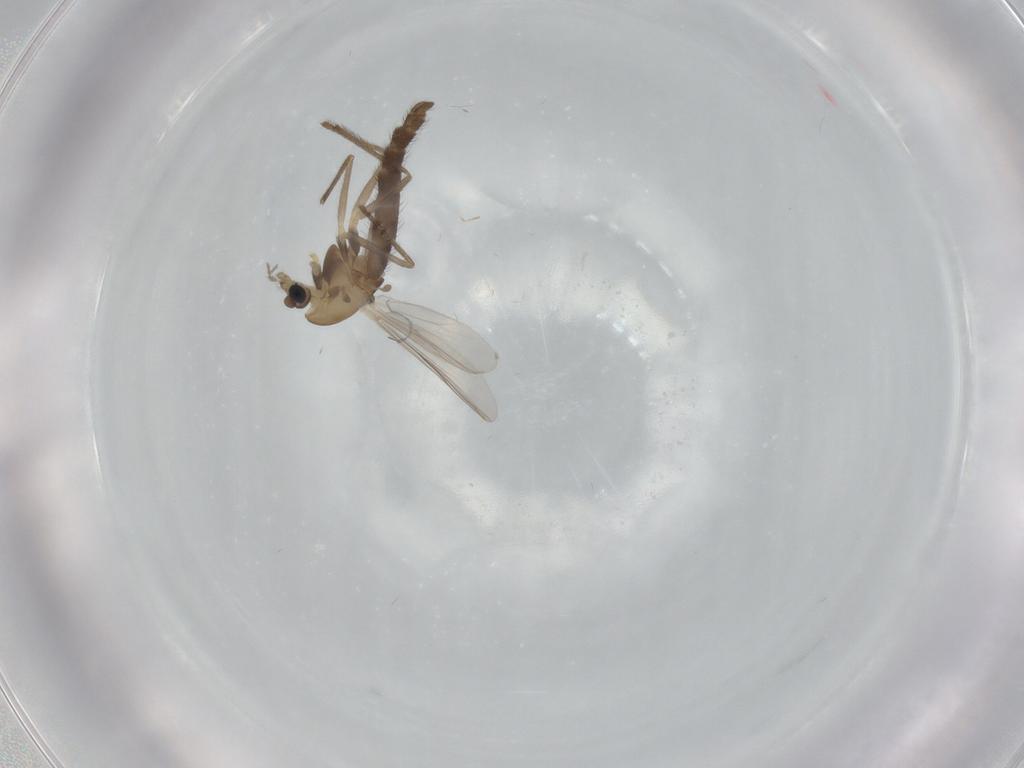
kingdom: Animalia
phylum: Arthropoda
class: Insecta
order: Diptera
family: Chironomidae
